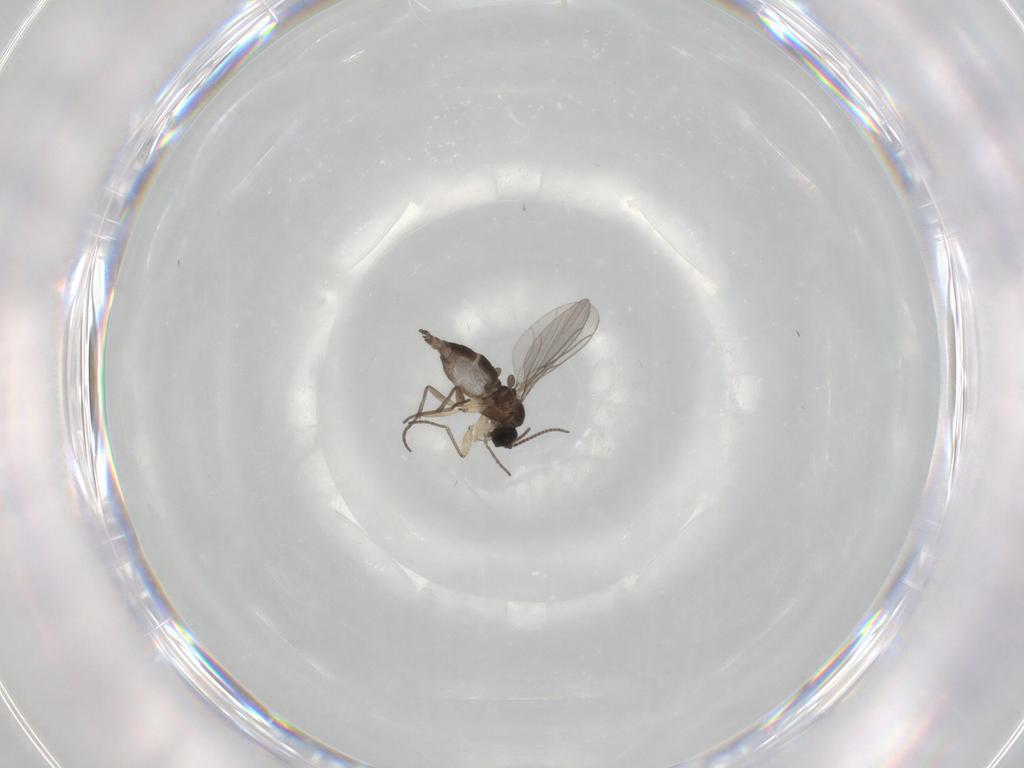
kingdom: Animalia
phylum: Arthropoda
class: Insecta
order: Diptera
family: Sciaridae
